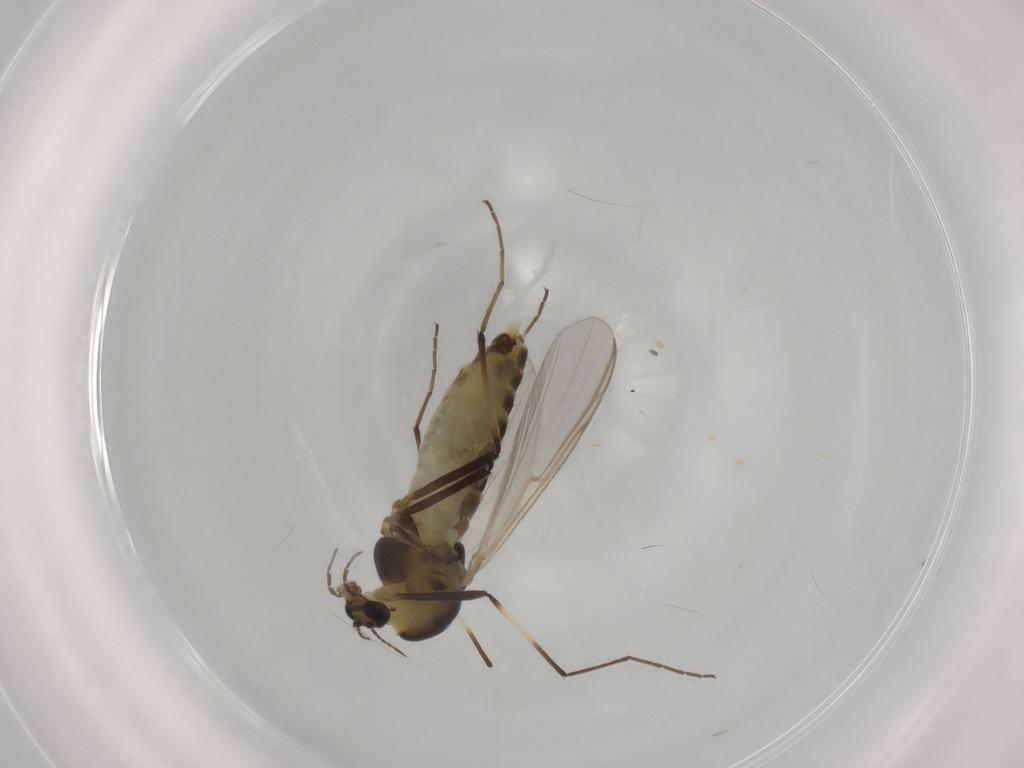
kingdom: Animalia
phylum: Arthropoda
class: Insecta
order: Diptera
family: Chironomidae
